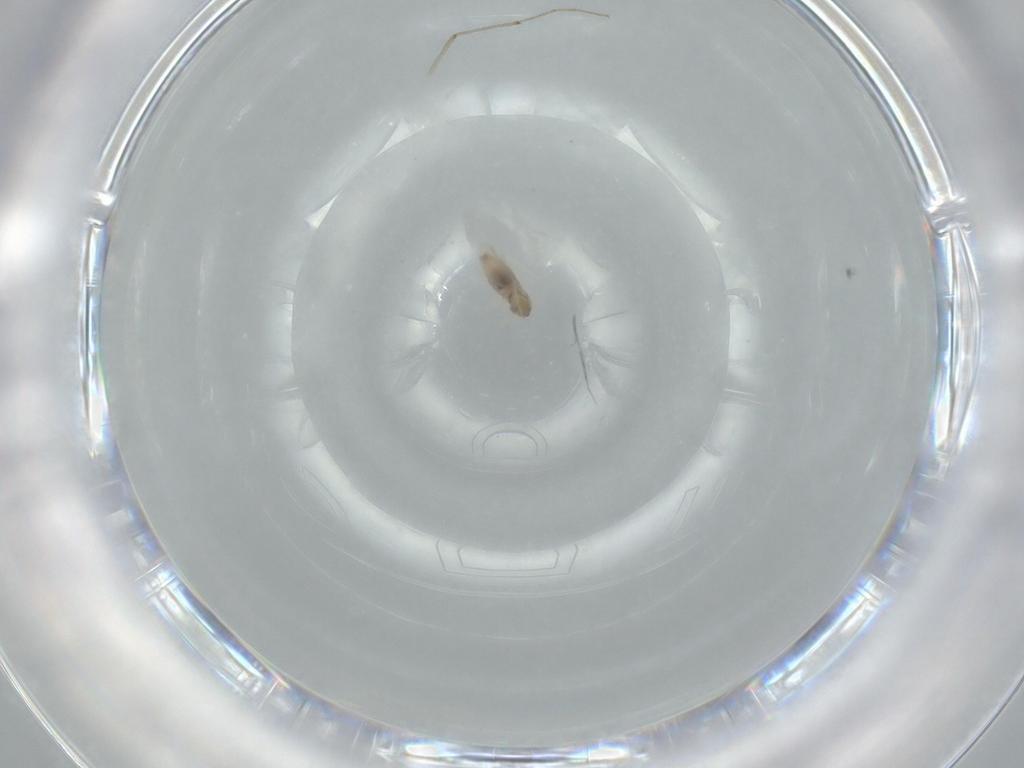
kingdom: Animalia
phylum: Arthropoda
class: Insecta
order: Diptera
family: Cecidomyiidae
